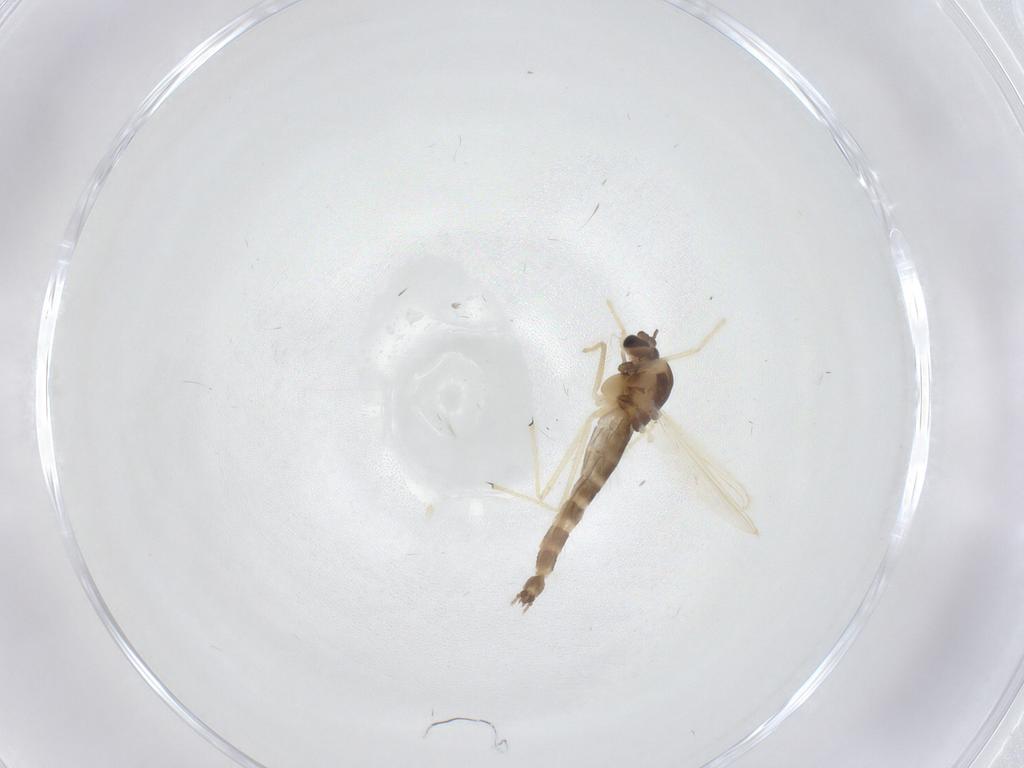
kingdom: Animalia
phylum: Arthropoda
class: Insecta
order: Diptera
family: Chironomidae
